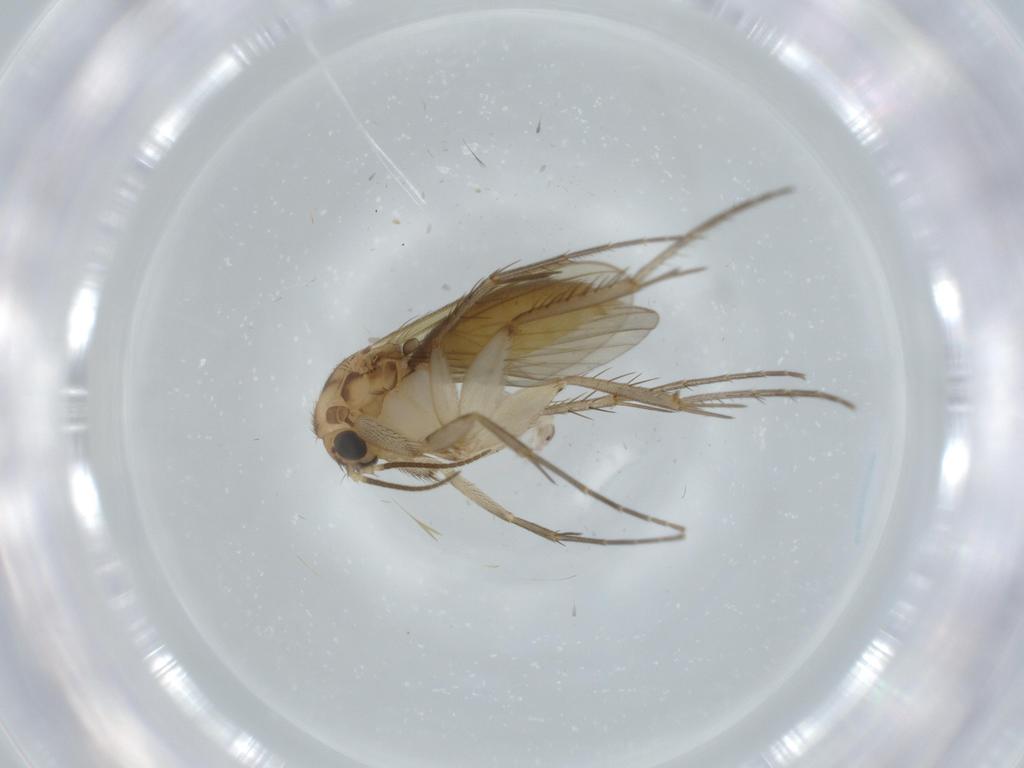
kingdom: Animalia
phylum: Arthropoda
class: Insecta
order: Diptera
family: Mycetophilidae
